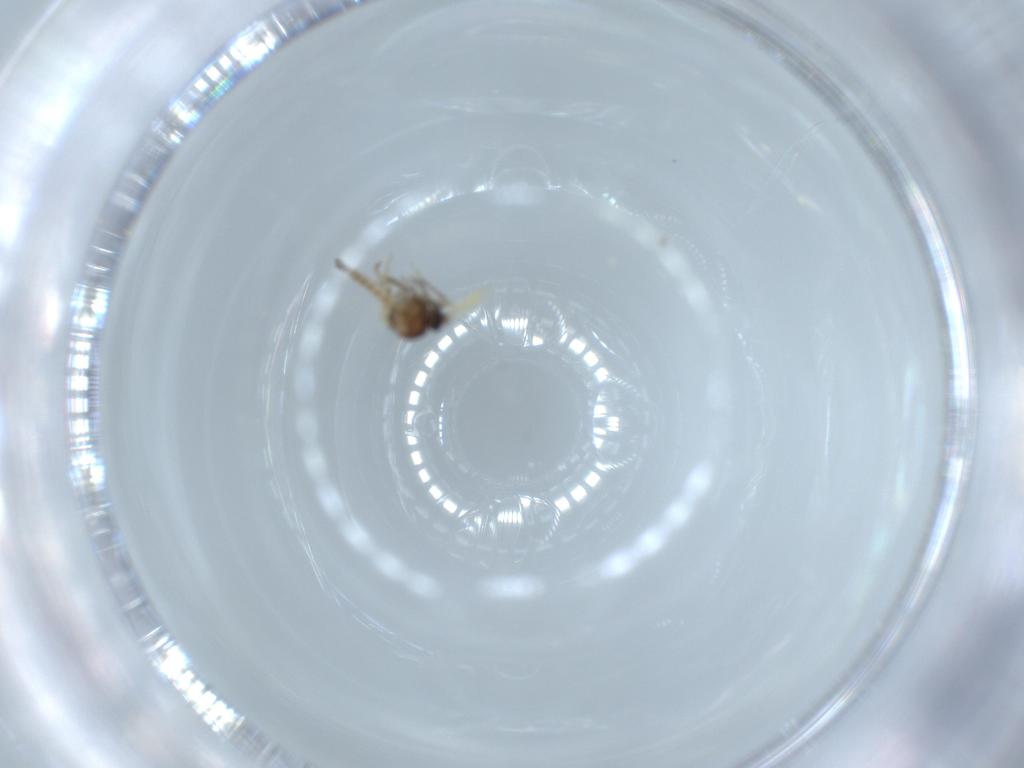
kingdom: Animalia
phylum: Arthropoda
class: Insecta
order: Diptera
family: Ceratopogonidae
